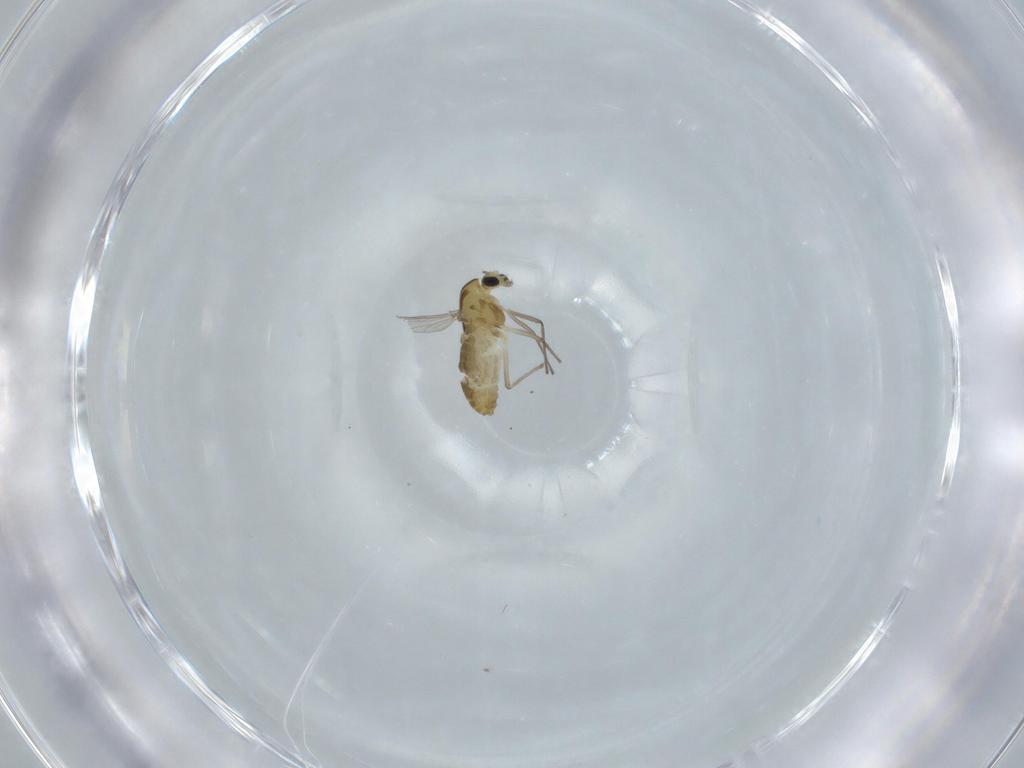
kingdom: Animalia
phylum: Arthropoda
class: Insecta
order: Diptera
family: Chironomidae
